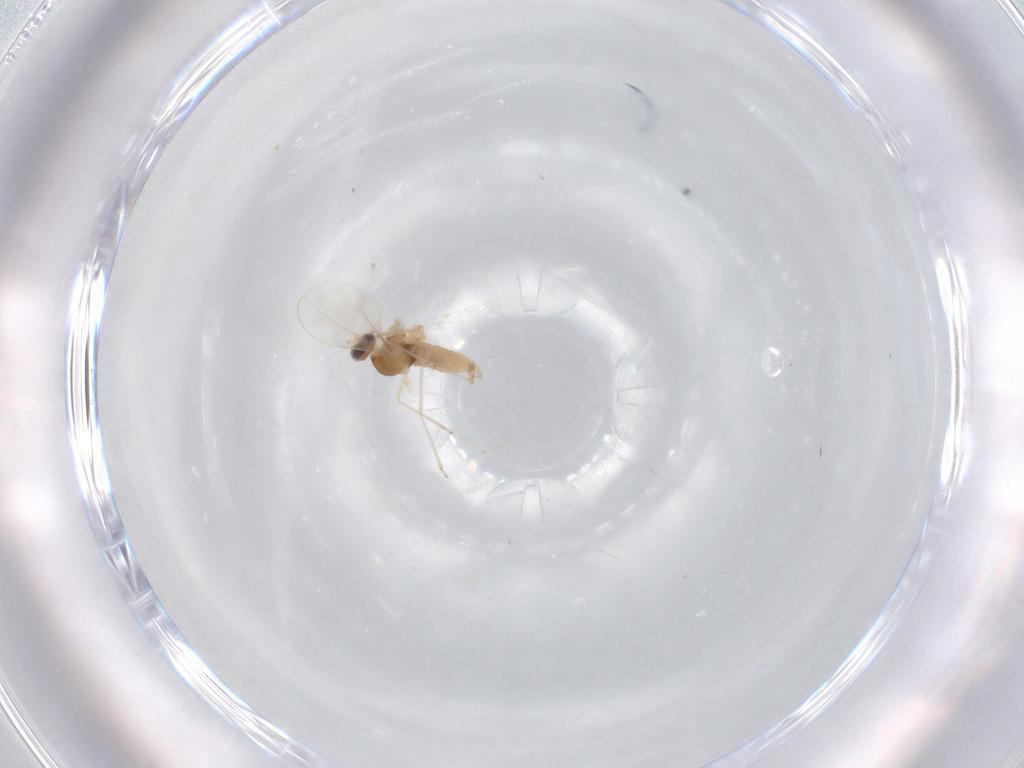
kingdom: Animalia
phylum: Arthropoda
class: Insecta
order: Diptera
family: Cecidomyiidae
